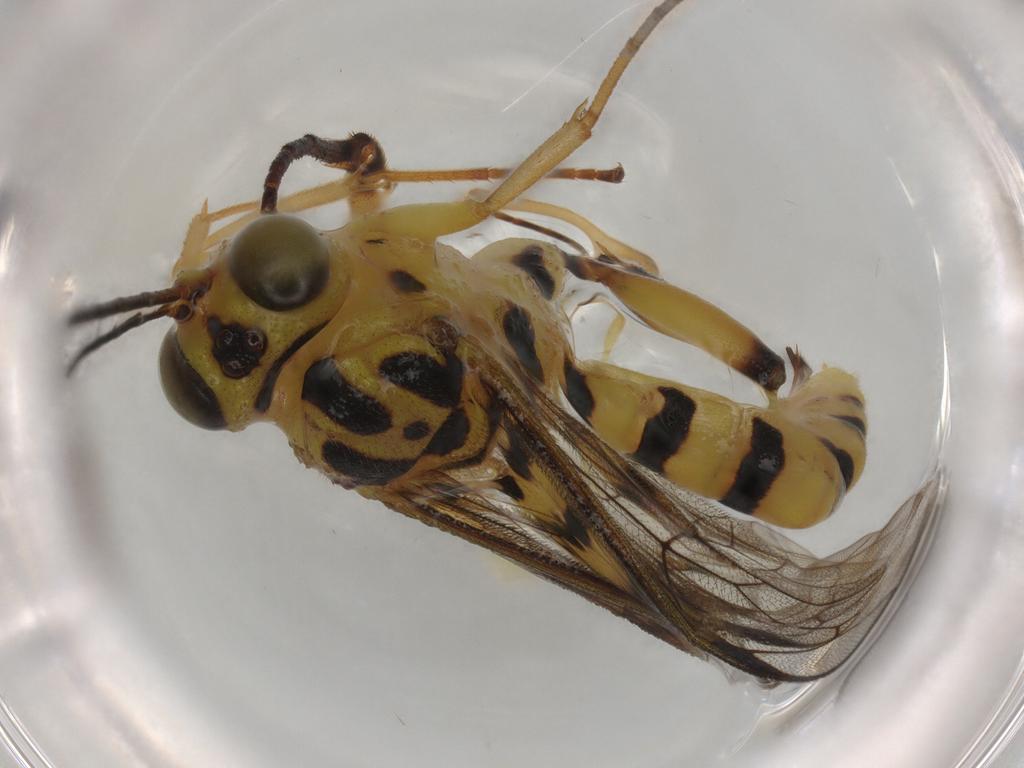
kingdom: Animalia
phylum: Arthropoda
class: Insecta
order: Hymenoptera
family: Ichneumonidae
